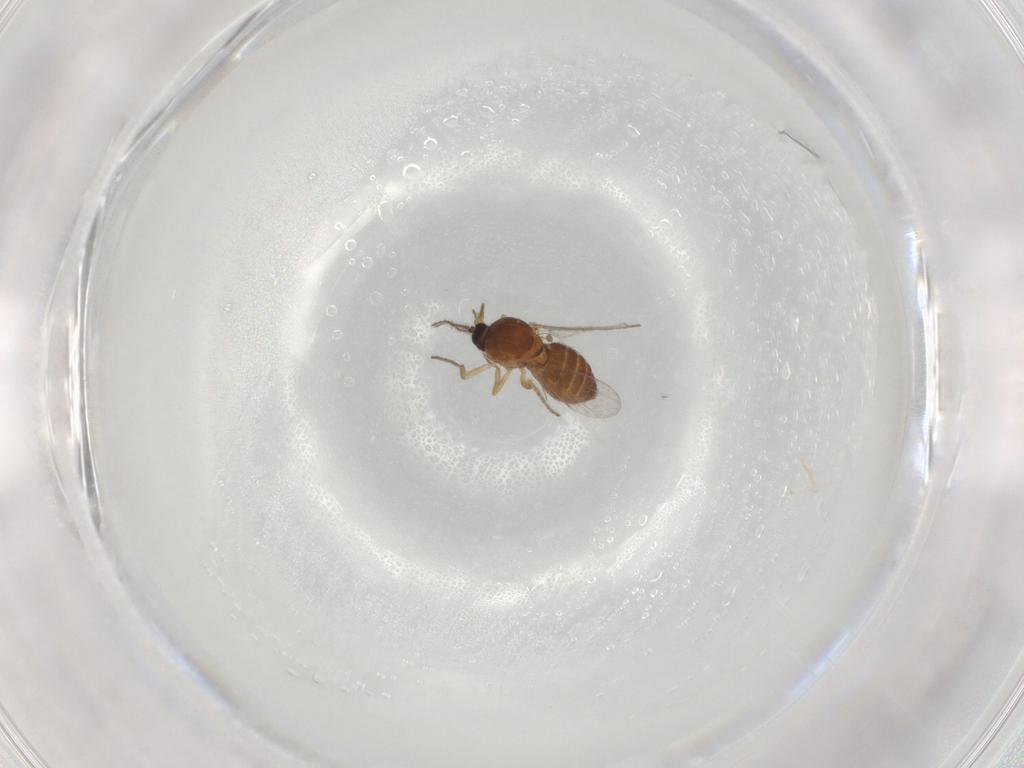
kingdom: Animalia
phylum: Arthropoda
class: Insecta
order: Diptera
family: Ceratopogonidae
